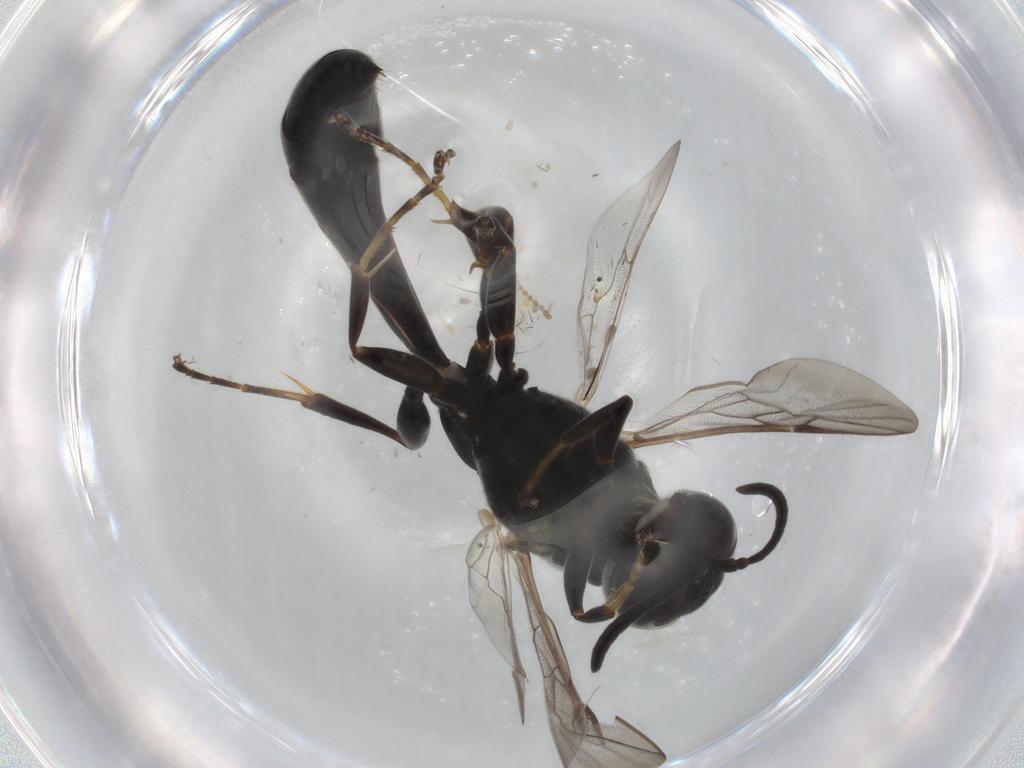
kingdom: Animalia
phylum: Arthropoda
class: Insecta
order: Hymenoptera
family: Crabronidae
